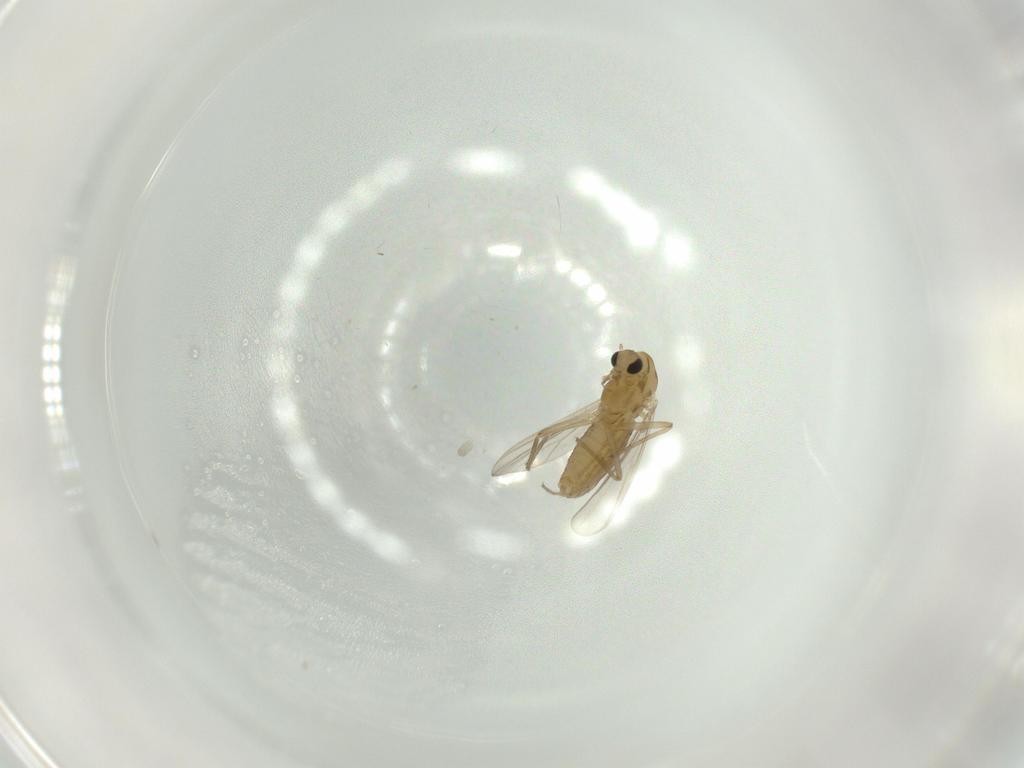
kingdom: Animalia
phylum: Arthropoda
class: Insecta
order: Diptera
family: Chironomidae
